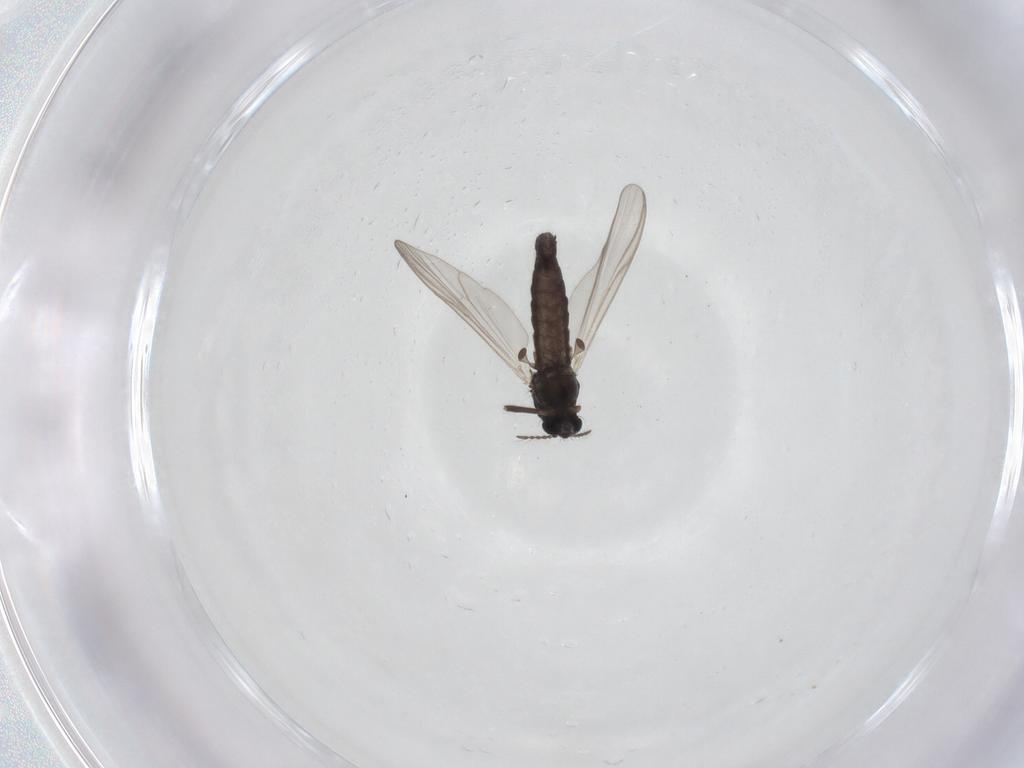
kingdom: Animalia
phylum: Arthropoda
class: Insecta
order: Diptera
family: Chironomidae
